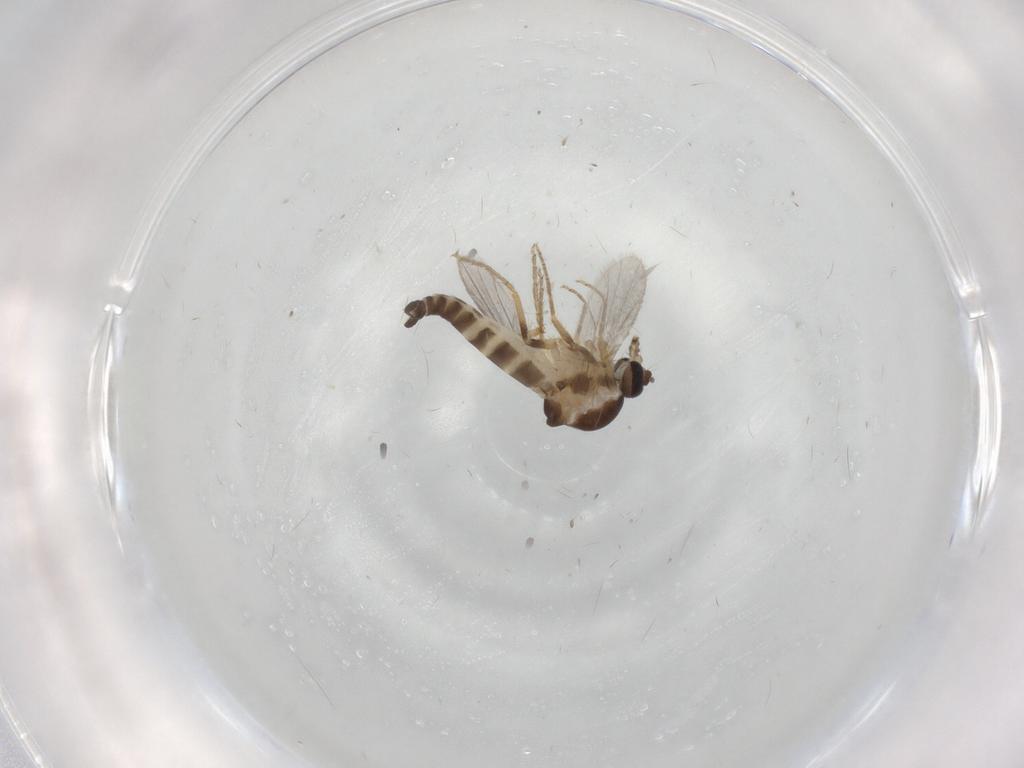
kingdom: Animalia
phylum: Arthropoda
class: Insecta
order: Diptera
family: Ceratopogonidae
